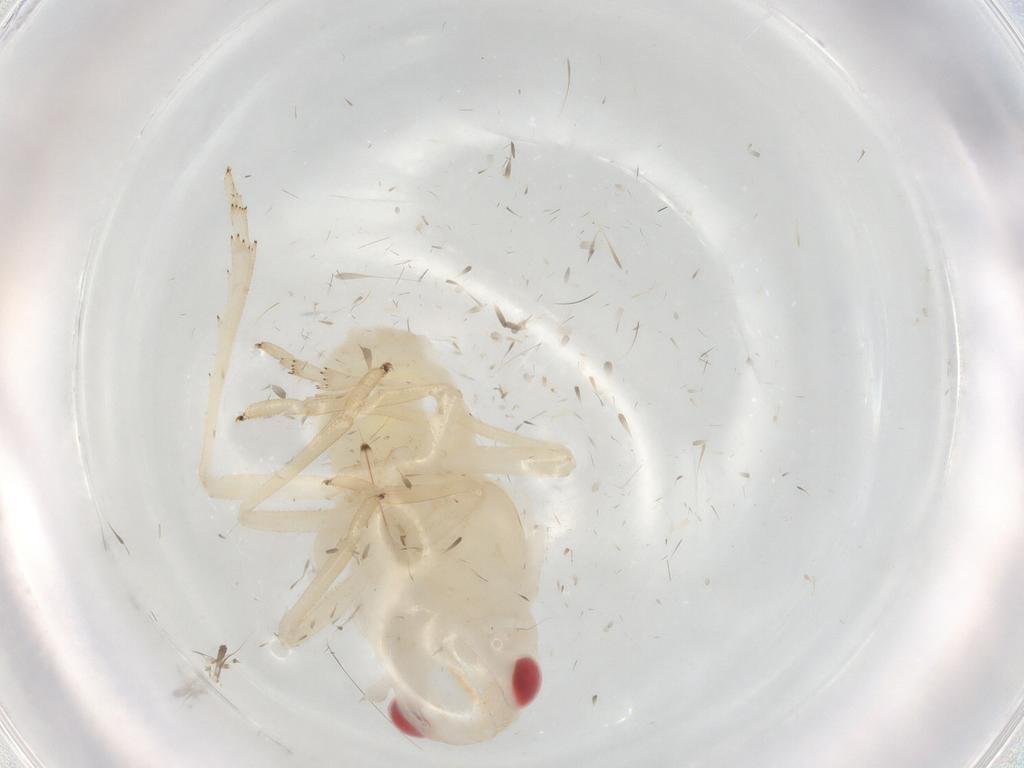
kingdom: Animalia
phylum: Arthropoda
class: Insecta
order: Hemiptera
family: Tropiduchidae
